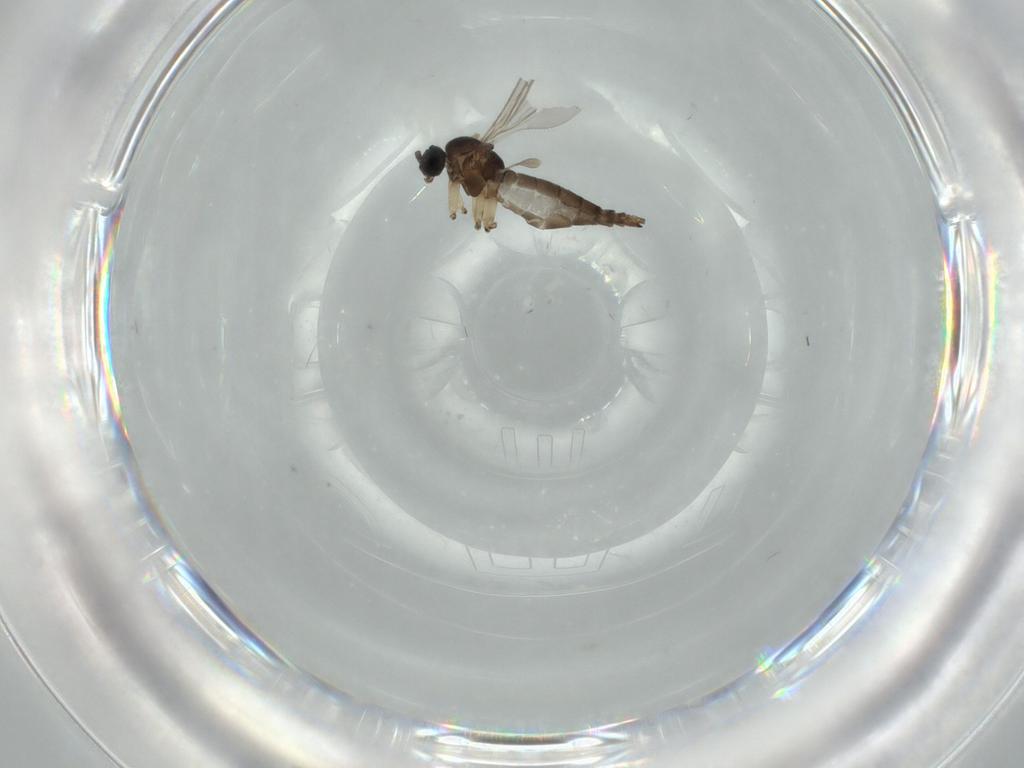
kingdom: Animalia
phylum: Arthropoda
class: Insecta
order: Diptera
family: Sciaridae
